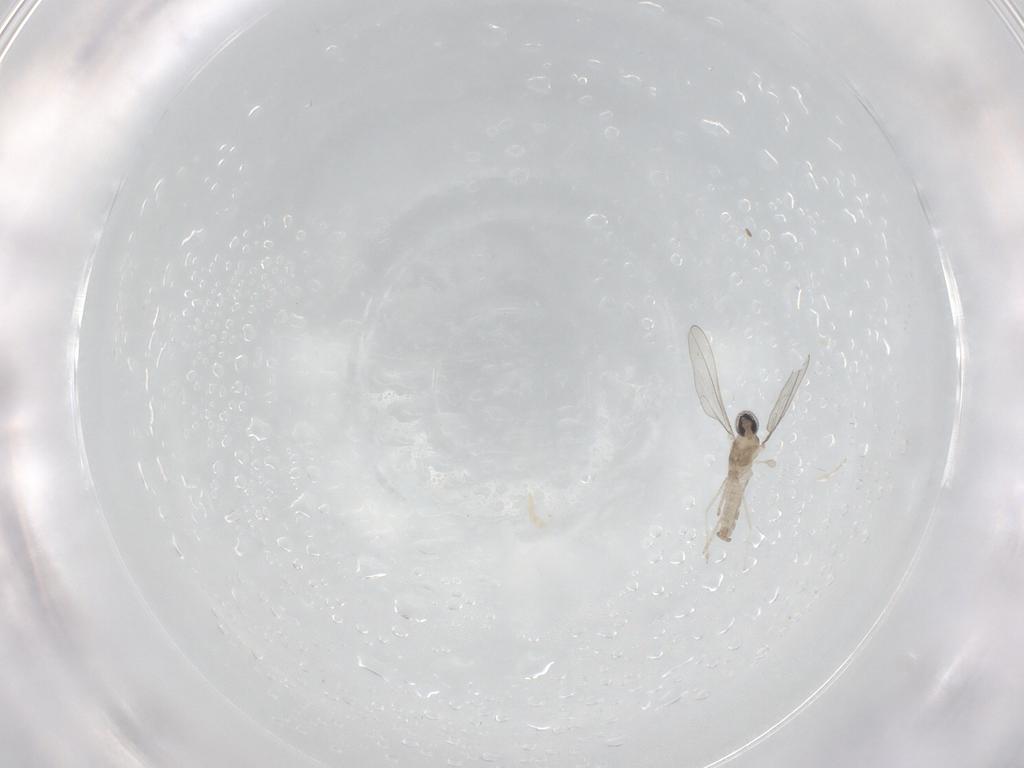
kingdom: Animalia
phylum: Arthropoda
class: Insecta
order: Diptera
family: Cecidomyiidae
